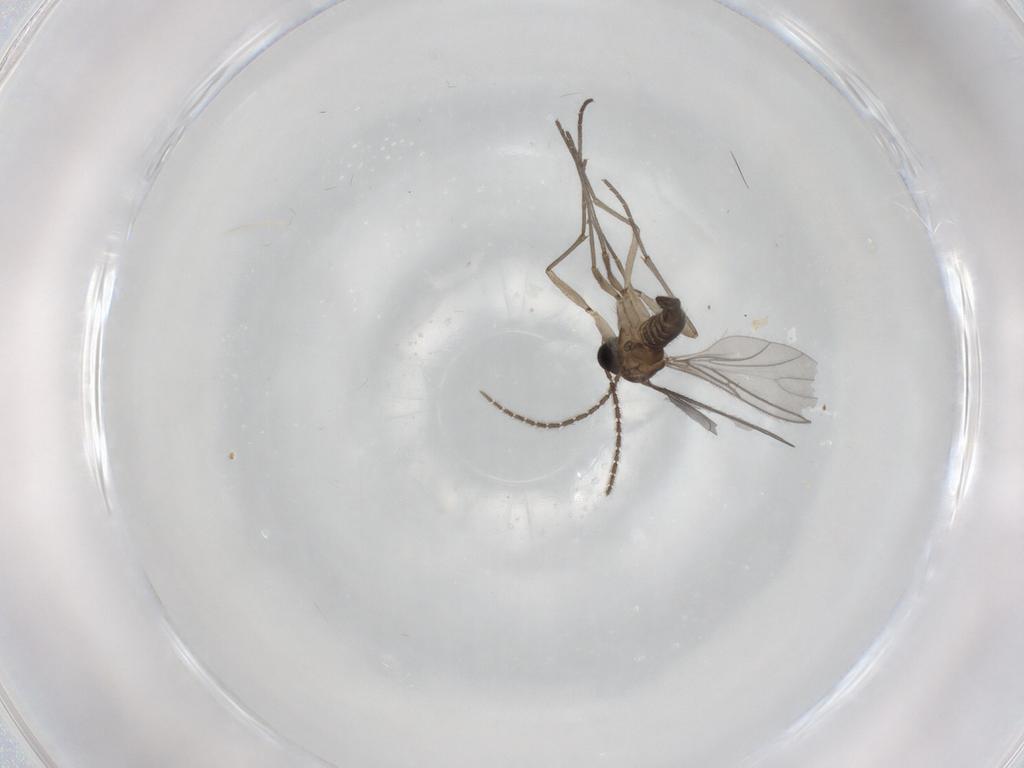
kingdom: Animalia
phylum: Arthropoda
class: Insecta
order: Diptera
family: Sciaridae
